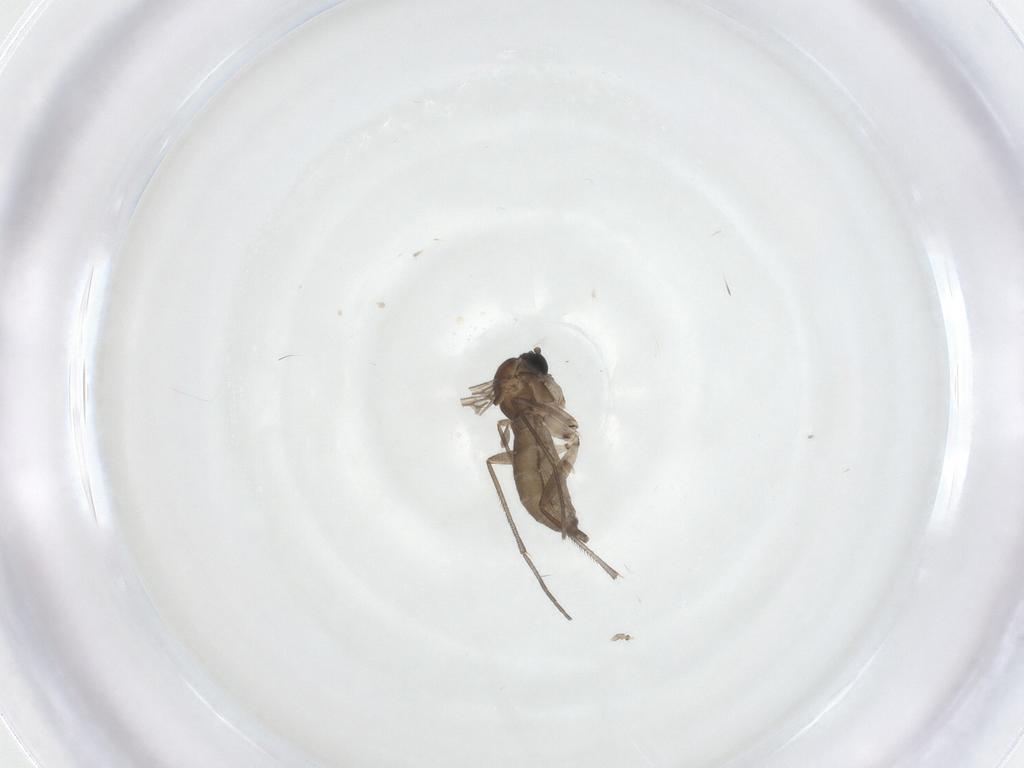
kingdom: Animalia
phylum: Arthropoda
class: Insecta
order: Diptera
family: Sciaridae
